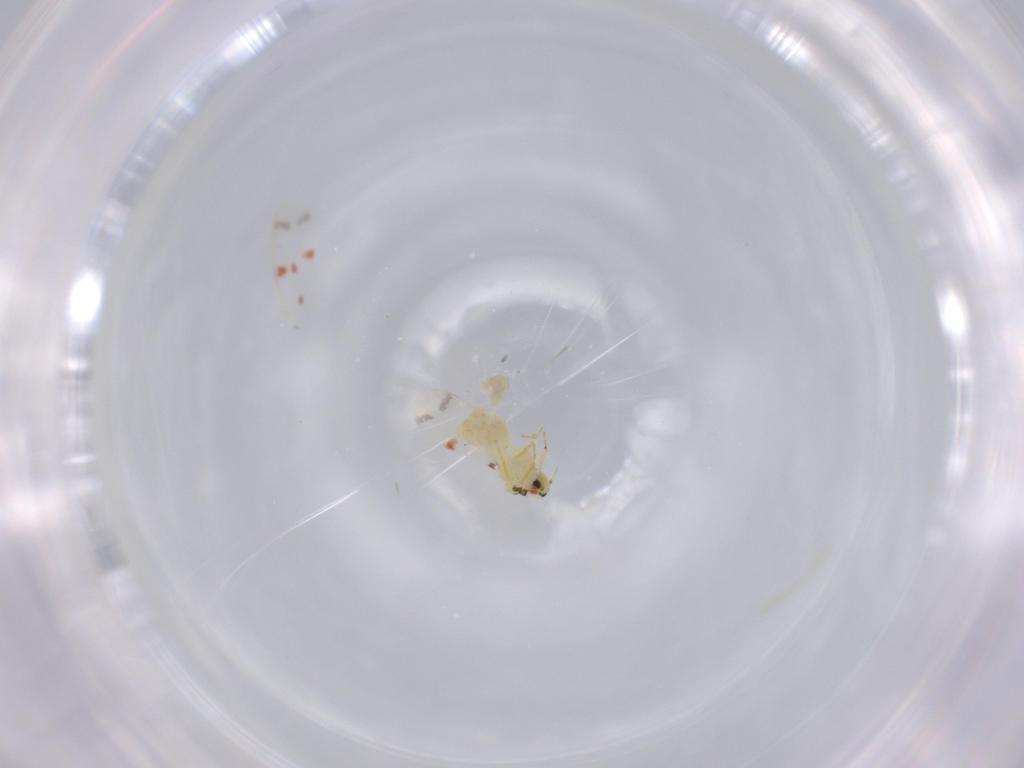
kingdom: Animalia
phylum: Arthropoda
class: Insecta
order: Hemiptera
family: Aleyrodidae
